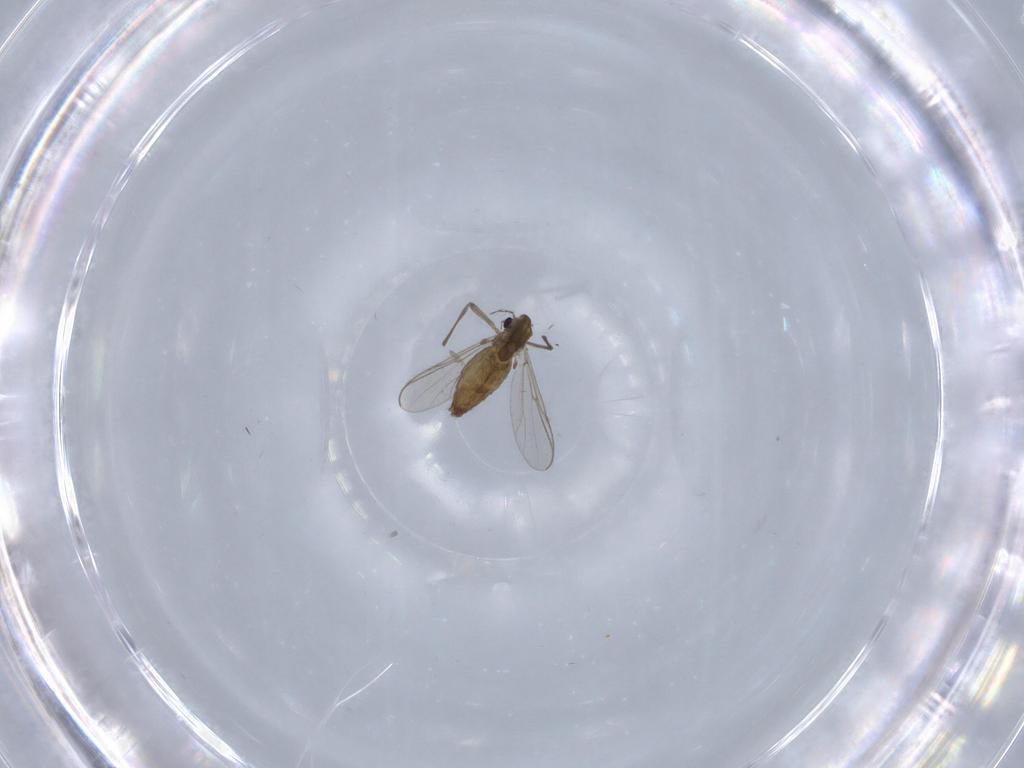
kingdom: Animalia
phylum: Arthropoda
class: Insecta
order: Diptera
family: Chironomidae
